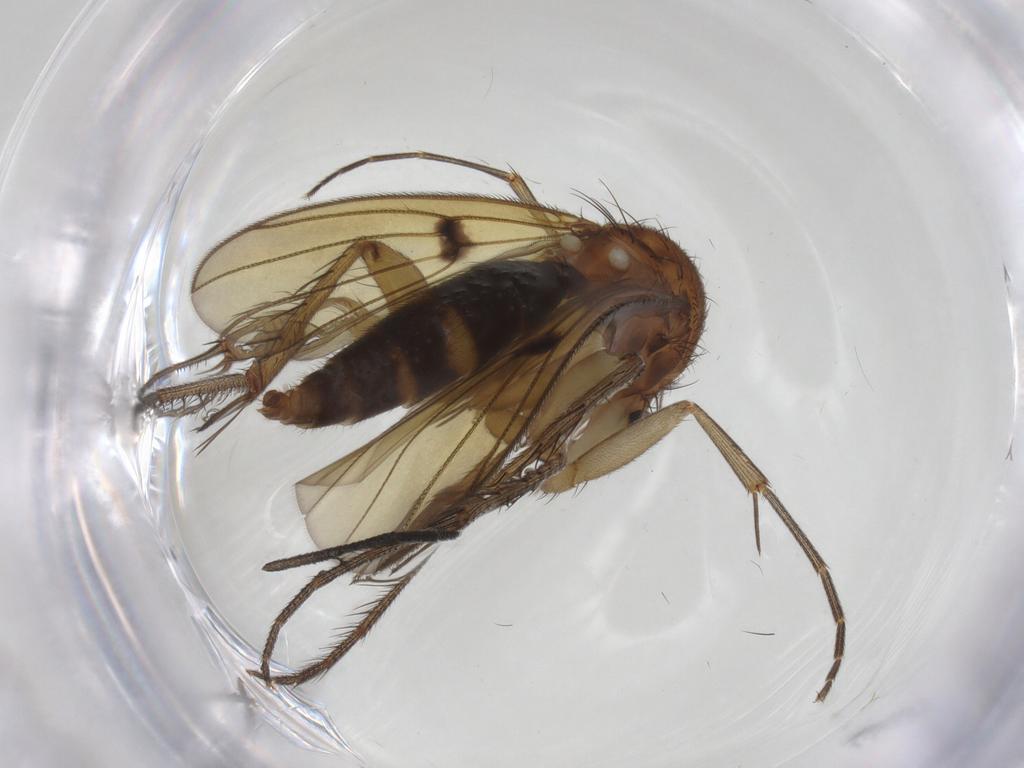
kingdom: Animalia
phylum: Arthropoda
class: Insecta
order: Diptera
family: Mycetophilidae
